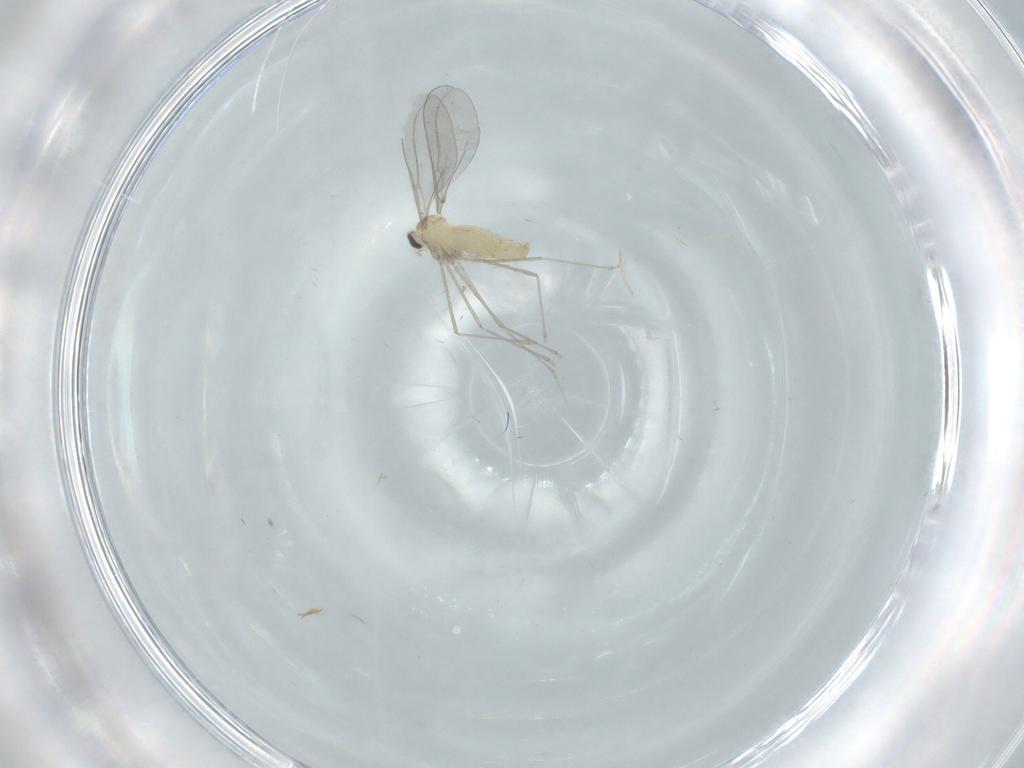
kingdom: Animalia
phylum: Arthropoda
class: Insecta
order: Diptera
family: Cecidomyiidae
